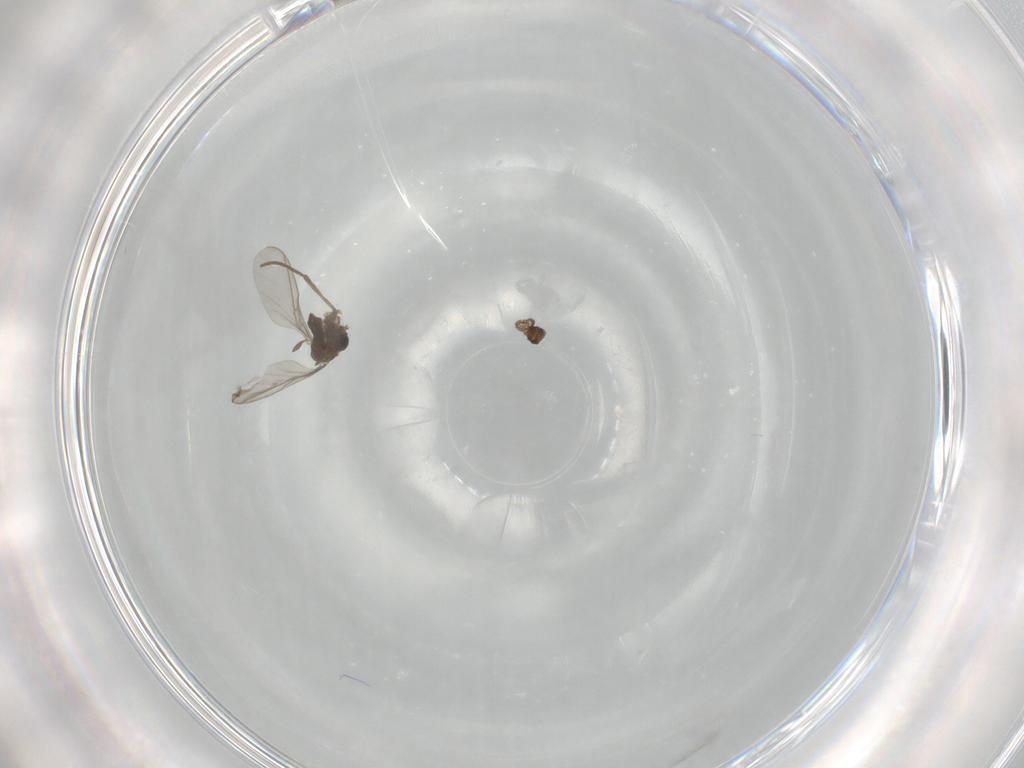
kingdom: Animalia
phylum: Arthropoda
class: Insecta
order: Diptera
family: Sciaridae
